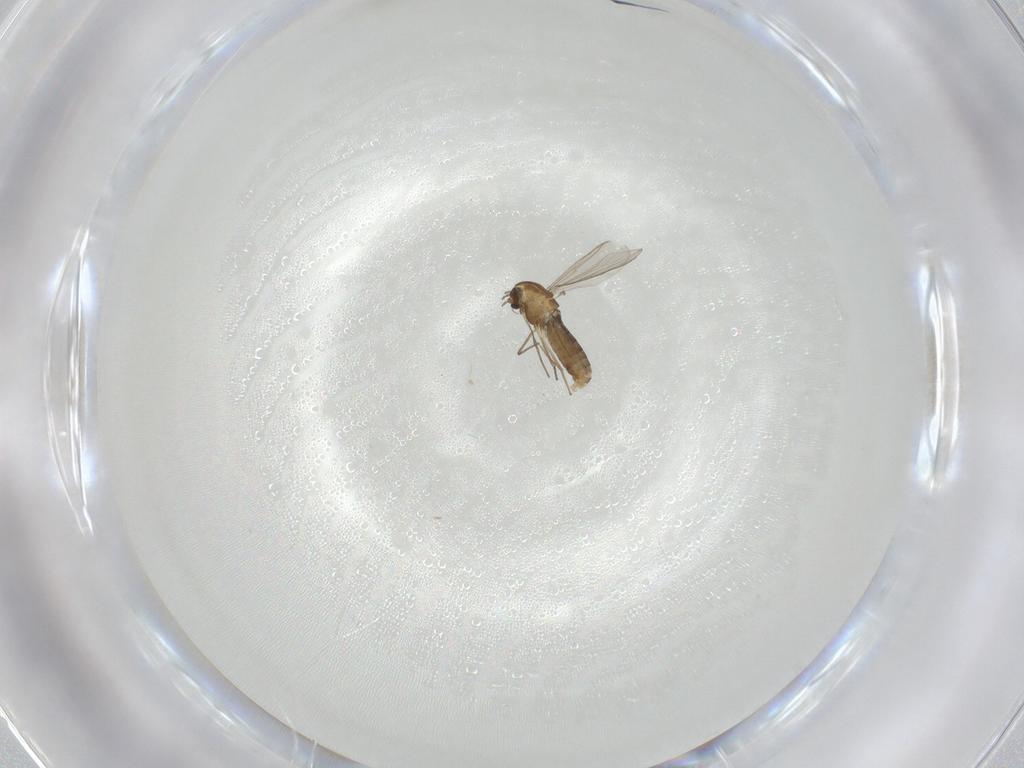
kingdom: Animalia
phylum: Arthropoda
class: Insecta
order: Diptera
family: Chironomidae
